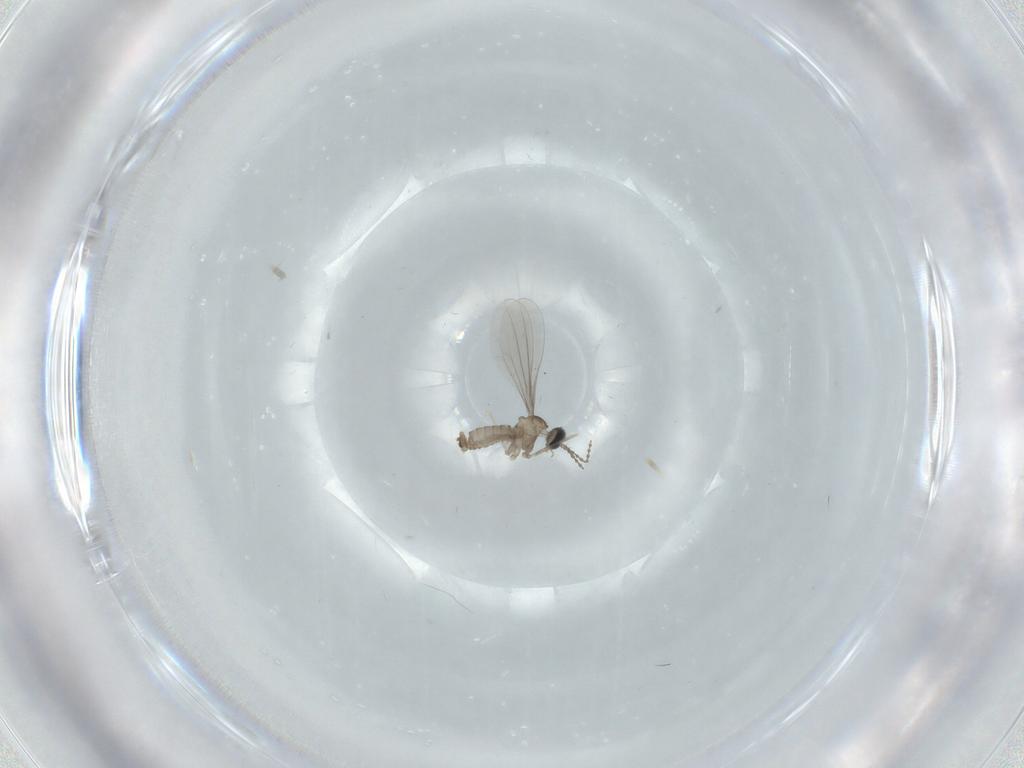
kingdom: Animalia
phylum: Arthropoda
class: Insecta
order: Diptera
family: Cecidomyiidae
